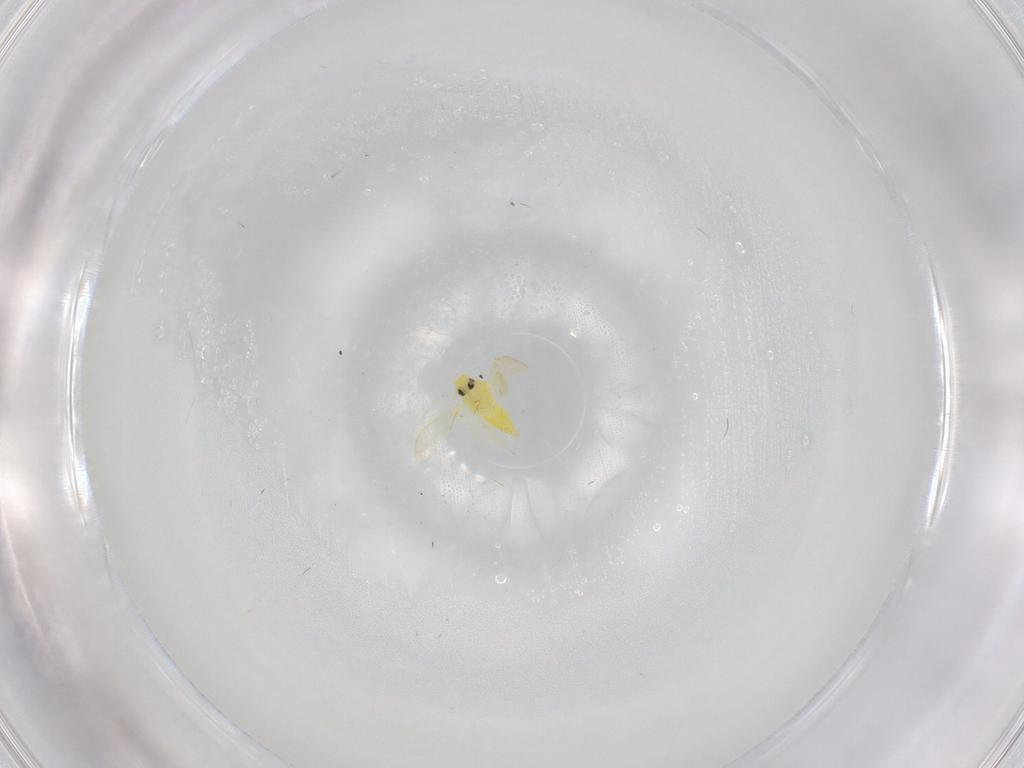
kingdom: Animalia
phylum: Arthropoda
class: Insecta
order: Hemiptera
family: Aleyrodidae
